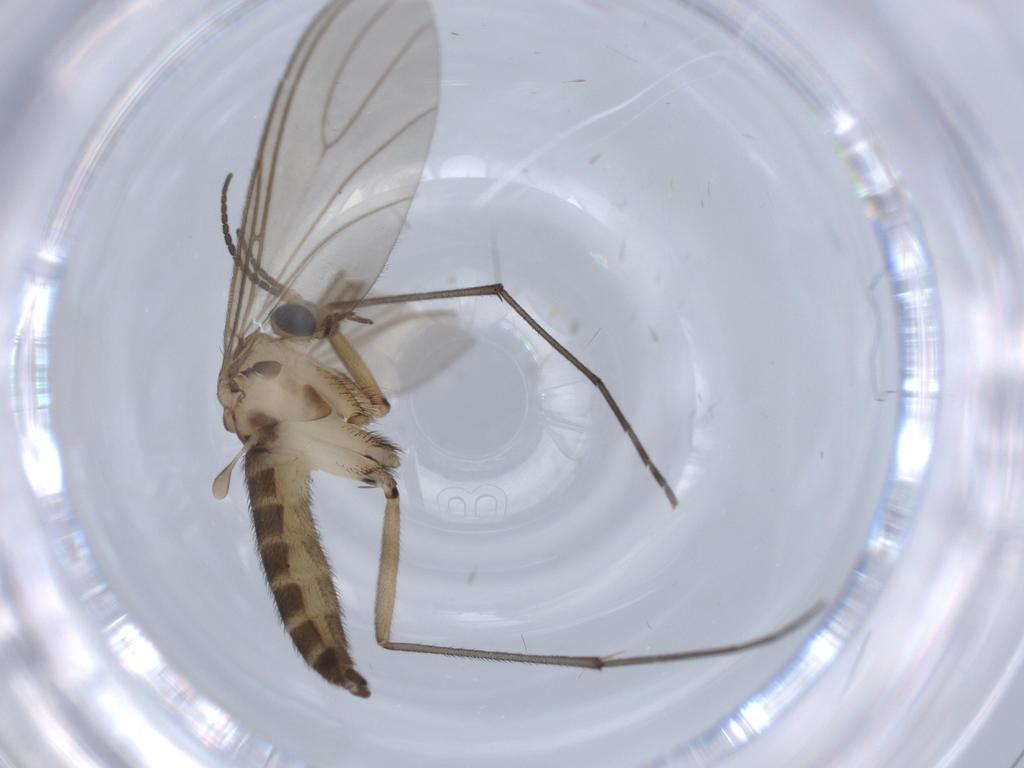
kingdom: Animalia
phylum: Arthropoda
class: Insecta
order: Diptera
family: Sciaridae
